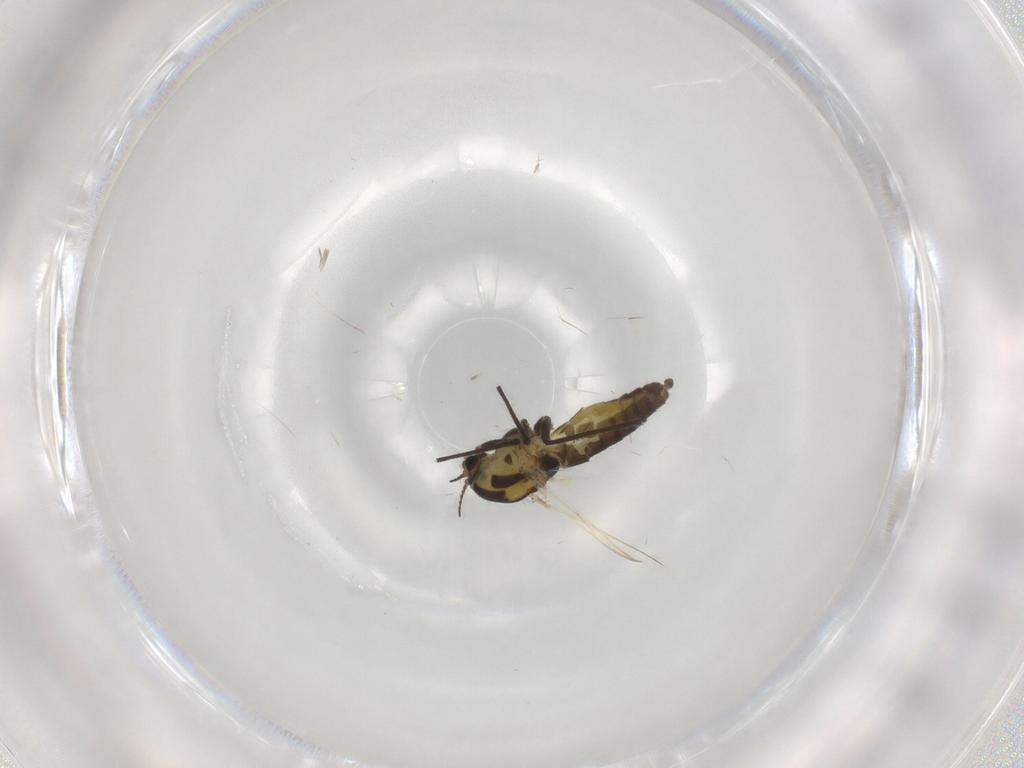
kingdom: Animalia
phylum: Arthropoda
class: Insecta
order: Diptera
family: Chironomidae
